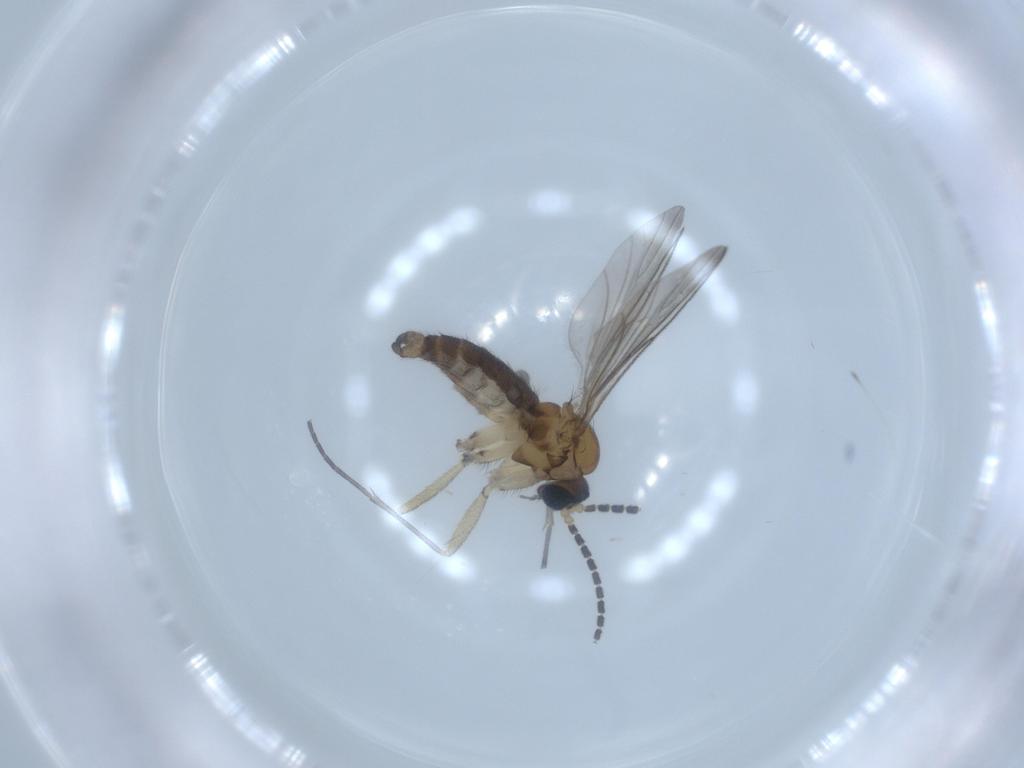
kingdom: Animalia
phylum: Arthropoda
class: Insecta
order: Diptera
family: Sciaridae
